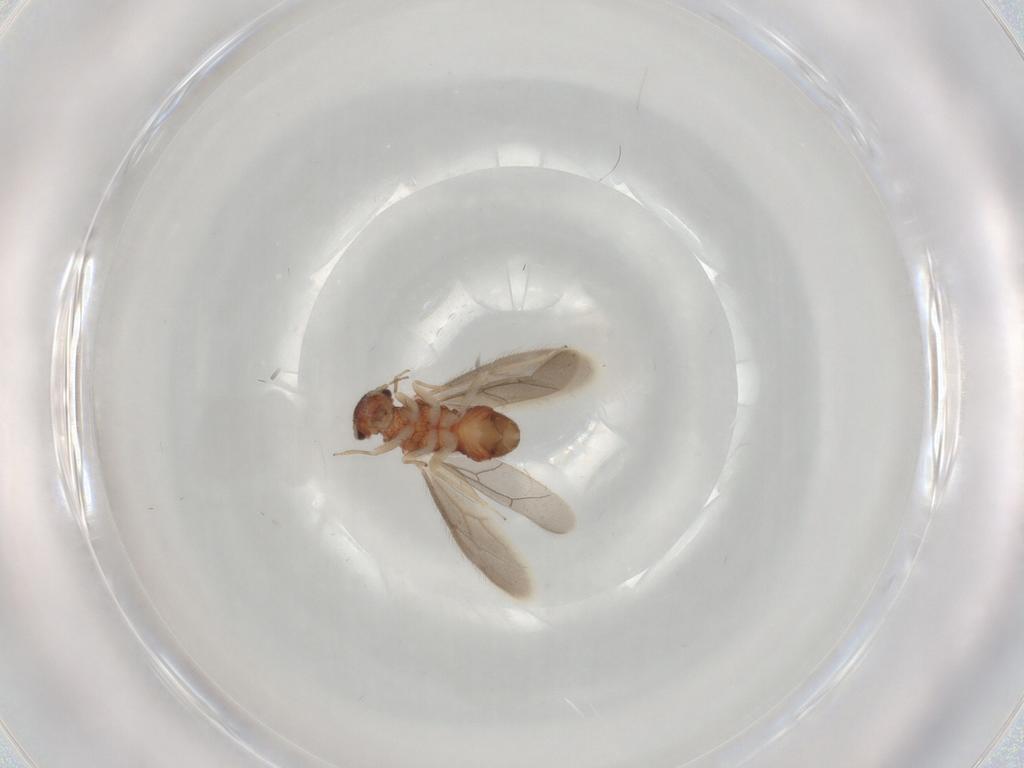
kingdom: Animalia
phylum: Arthropoda
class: Insecta
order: Psocodea
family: Archipsocidae
